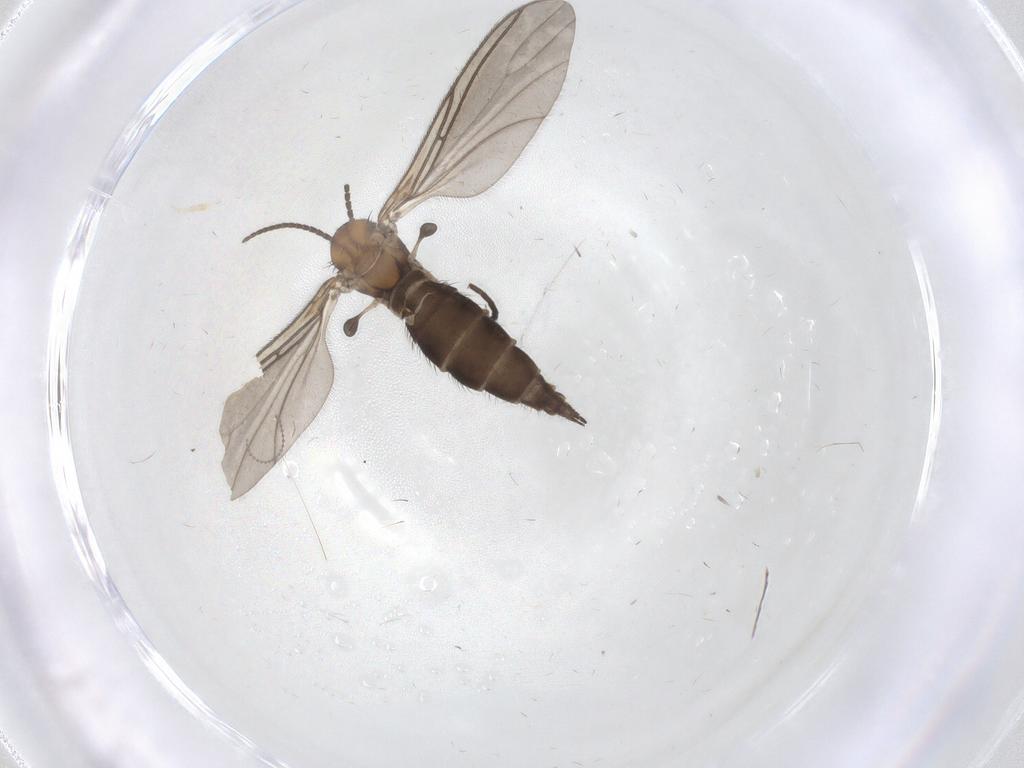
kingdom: Animalia
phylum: Arthropoda
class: Insecta
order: Diptera
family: Sciaridae
